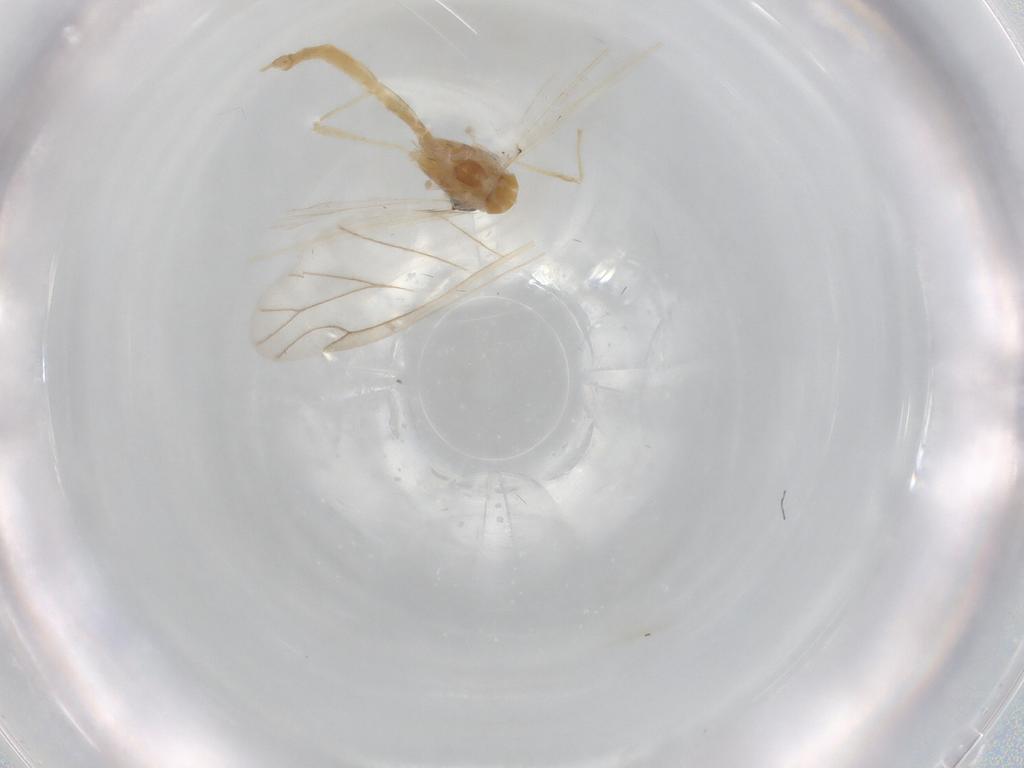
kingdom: Animalia
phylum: Arthropoda
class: Insecta
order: Diptera
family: Chironomidae
